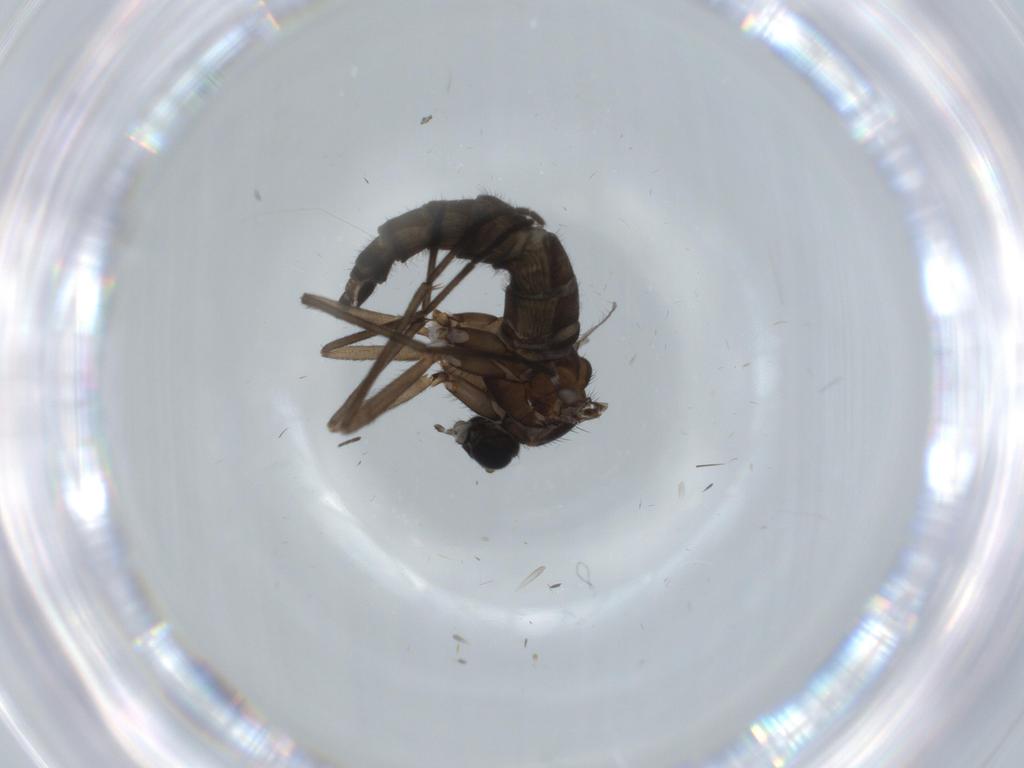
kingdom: Animalia
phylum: Arthropoda
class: Insecta
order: Diptera
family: Sciaridae
